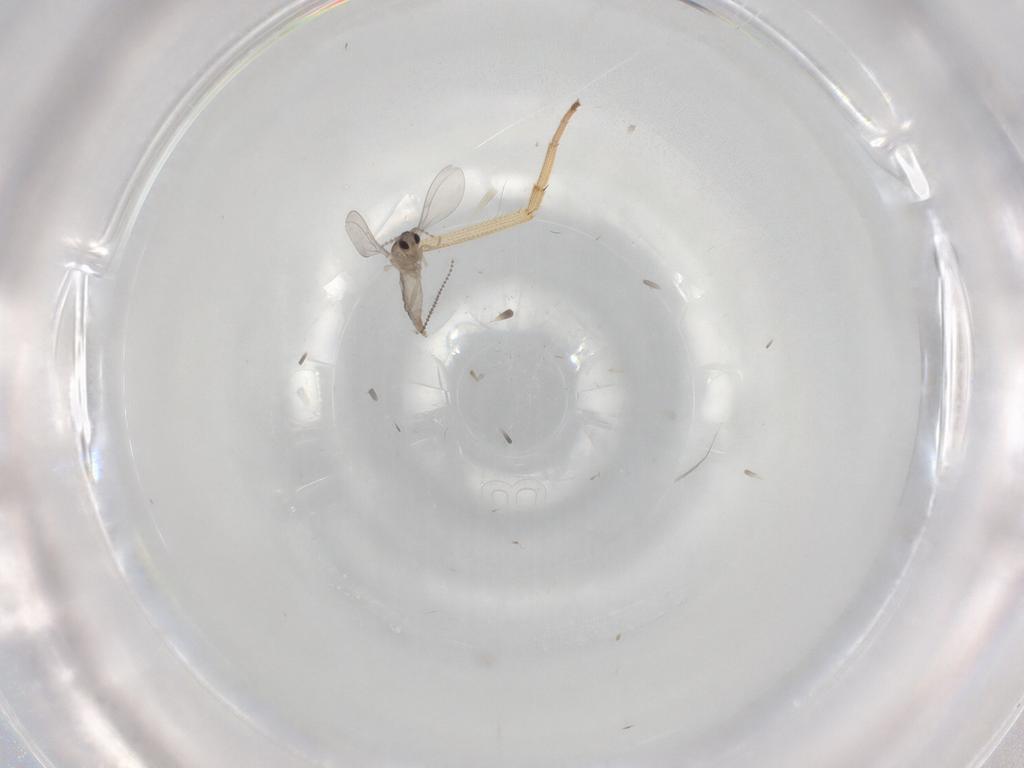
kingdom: Animalia
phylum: Arthropoda
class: Insecta
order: Diptera
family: Cecidomyiidae
